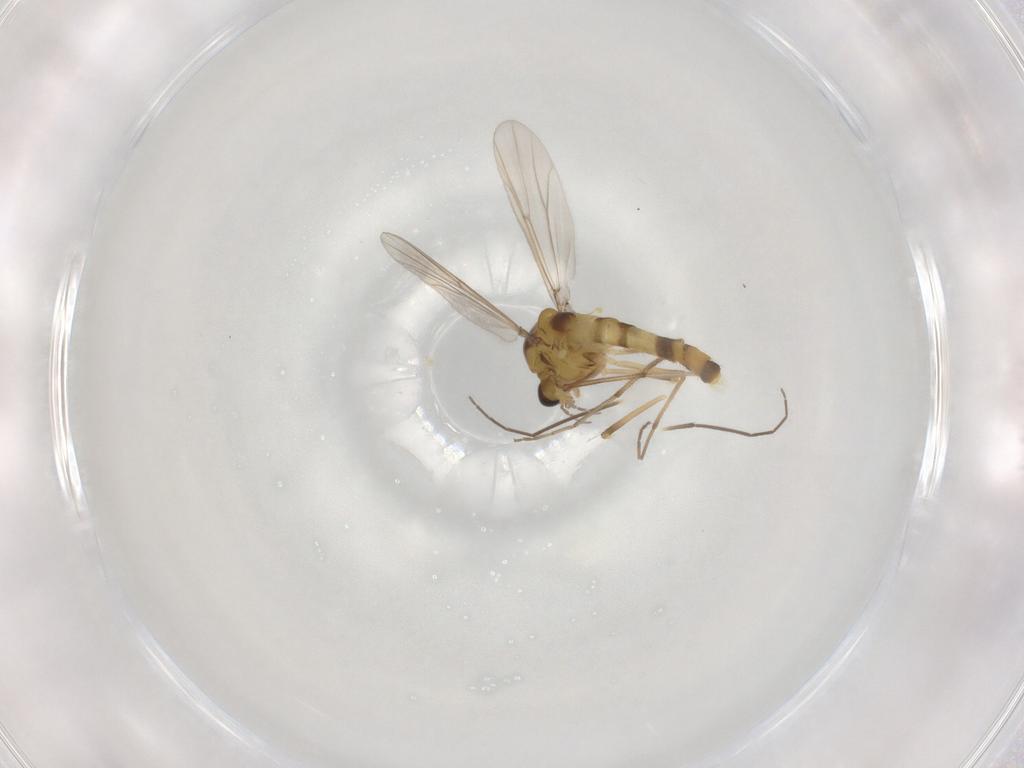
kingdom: Animalia
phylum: Arthropoda
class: Insecta
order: Diptera
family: Chironomidae
